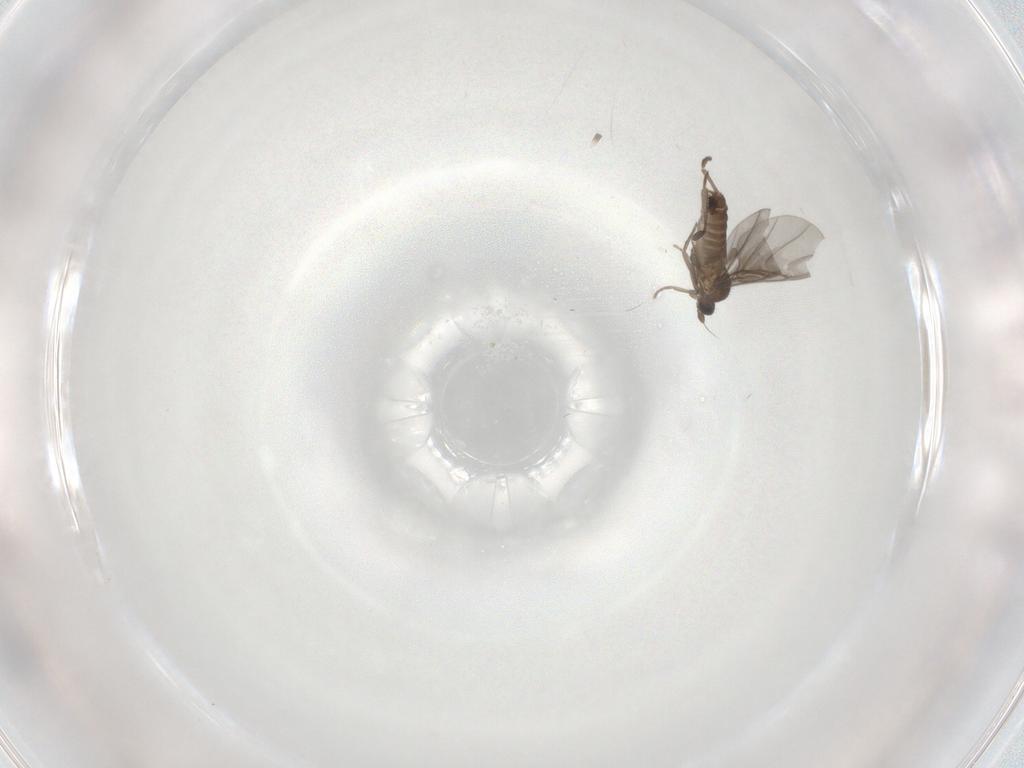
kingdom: Animalia
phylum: Arthropoda
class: Insecta
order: Diptera
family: Phoridae
